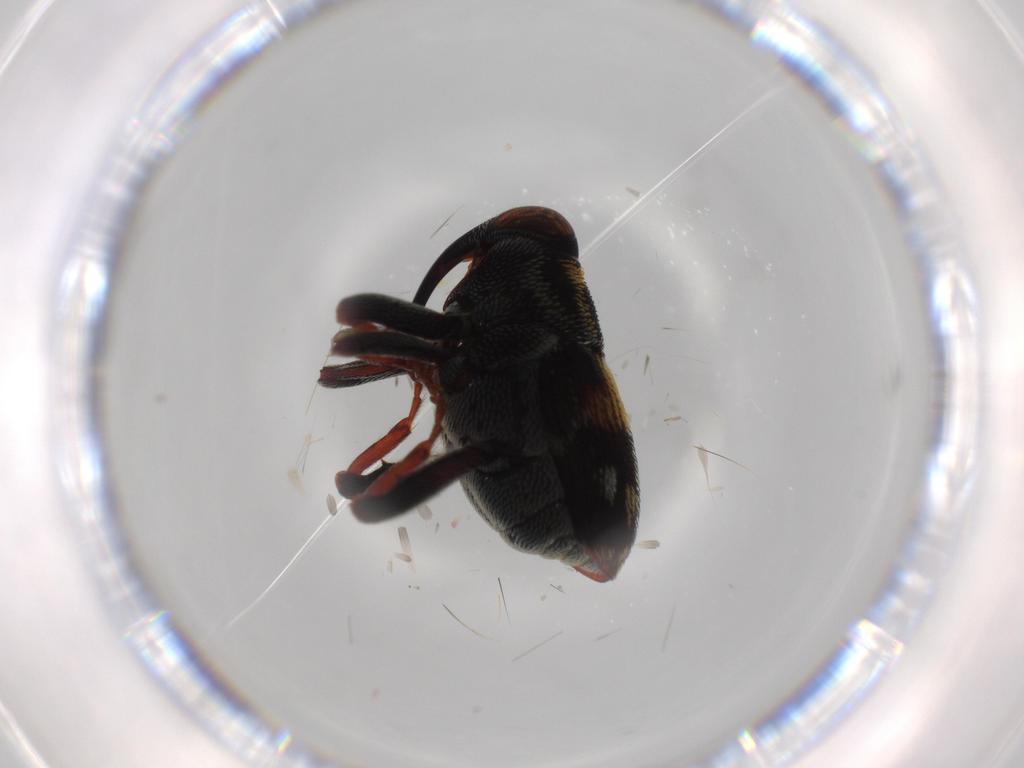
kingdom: Animalia
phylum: Arthropoda
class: Insecta
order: Coleoptera
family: Curculionidae
